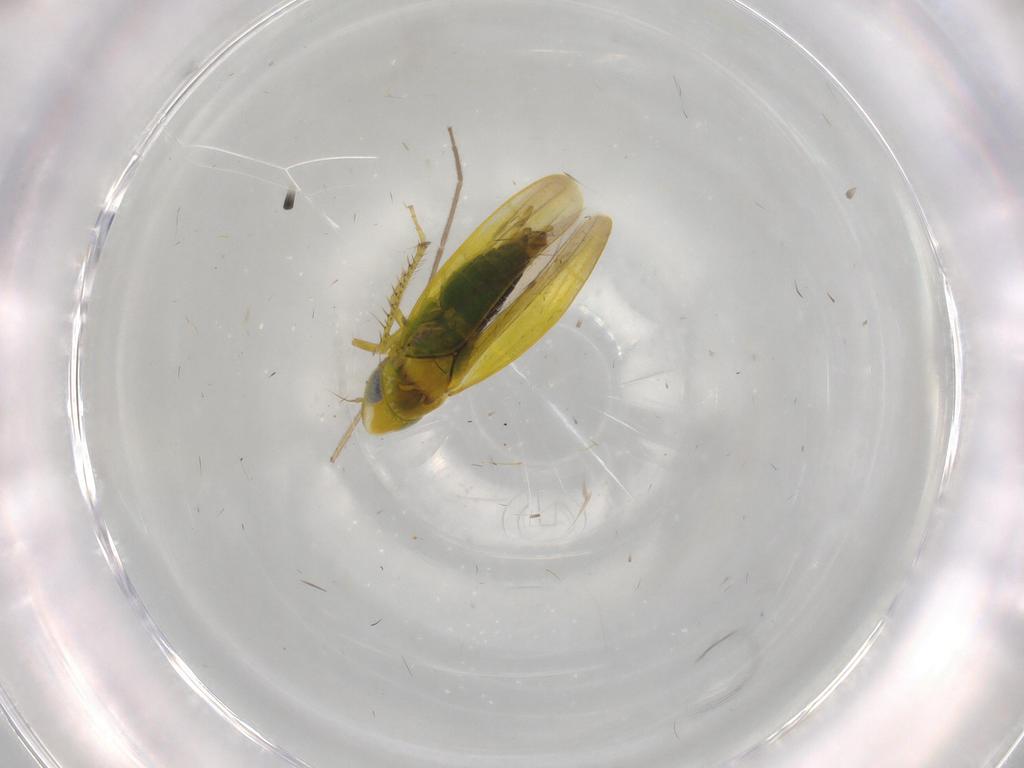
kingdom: Animalia
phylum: Arthropoda
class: Insecta
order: Hemiptera
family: Cicadellidae
